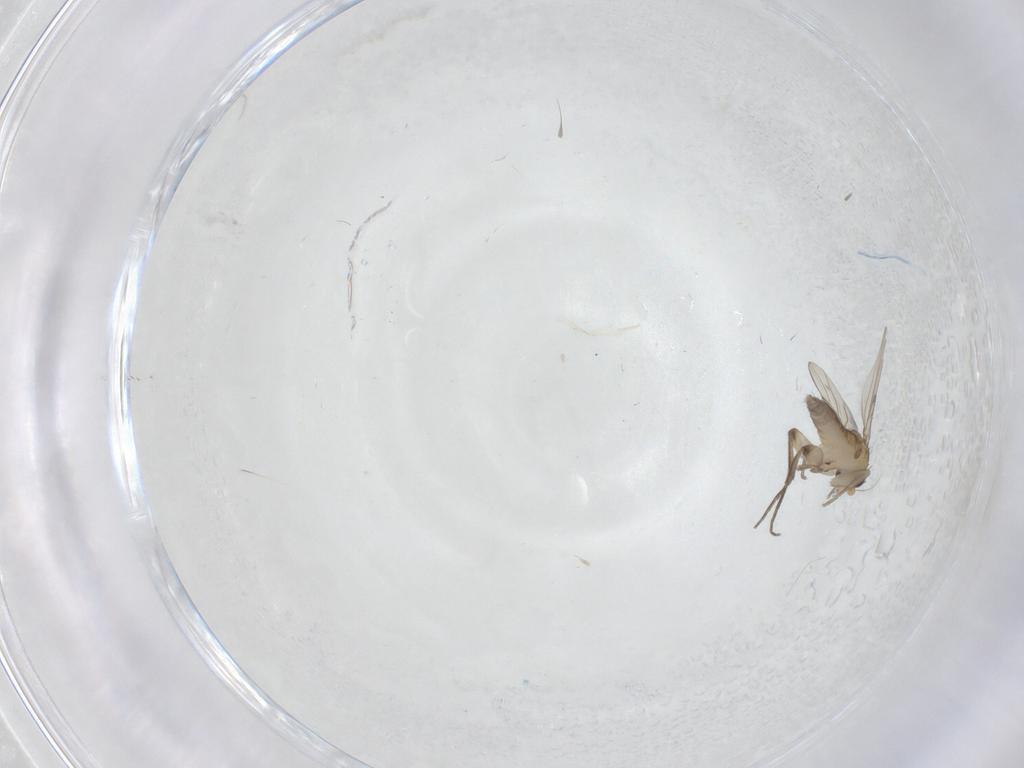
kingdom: Animalia
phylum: Arthropoda
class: Insecta
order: Diptera
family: Phoridae
